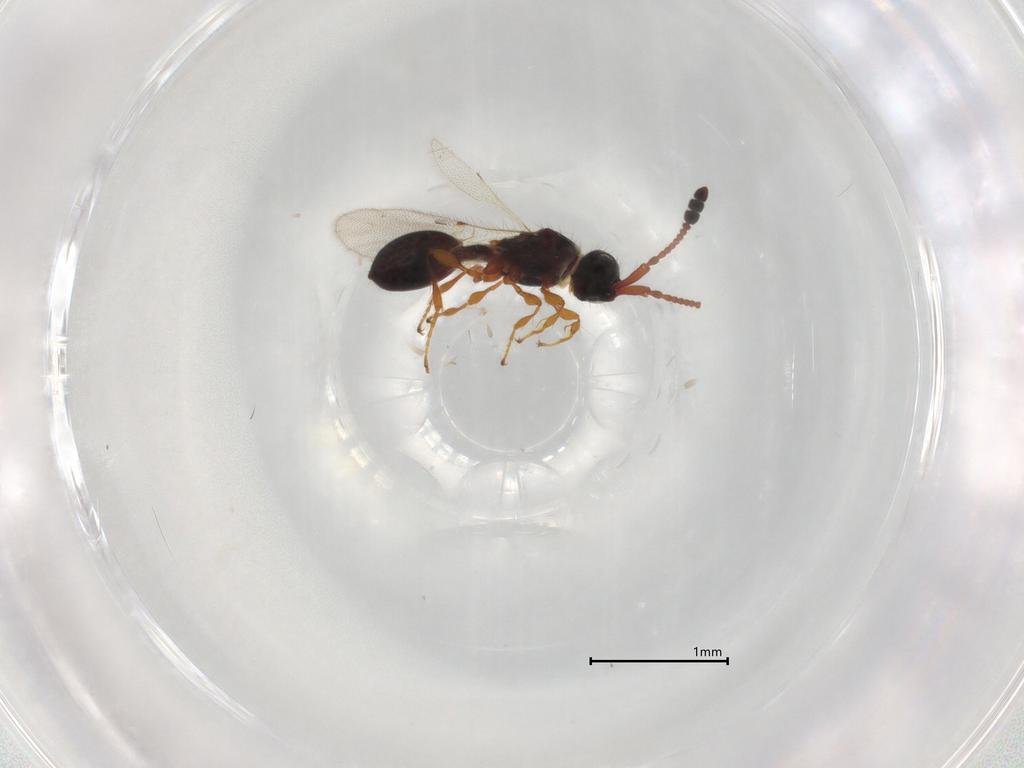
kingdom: Animalia
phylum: Arthropoda
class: Insecta
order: Hymenoptera
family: Diapriidae
